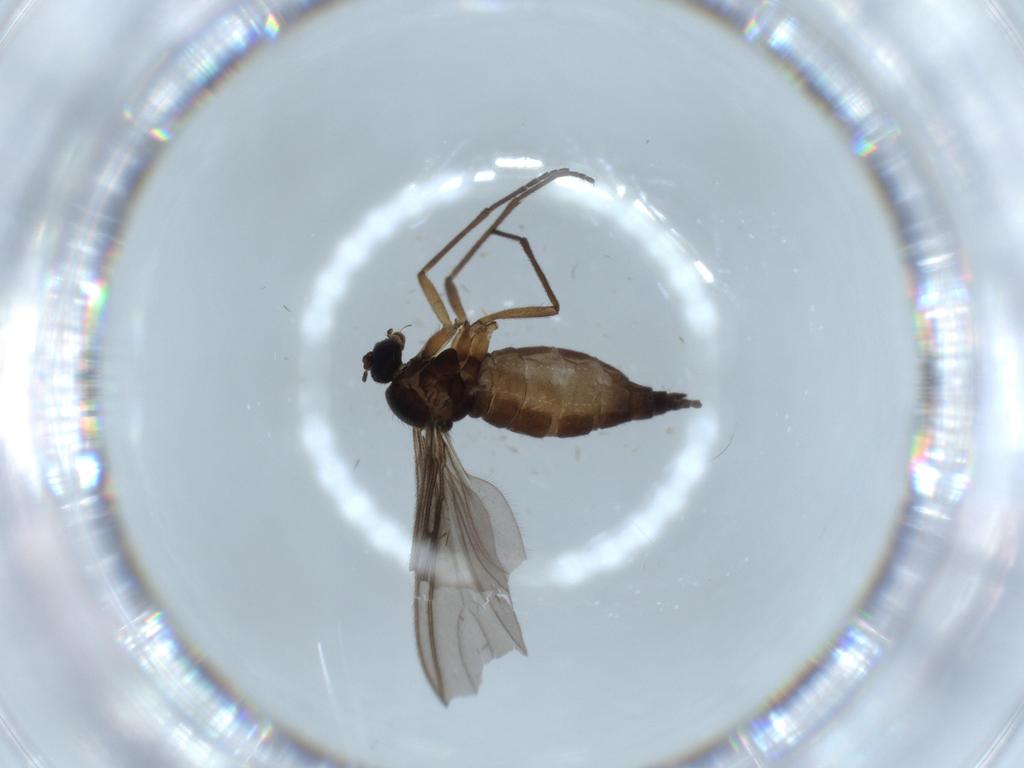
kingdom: Animalia
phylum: Arthropoda
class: Insecta
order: Diptera
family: Sciaridae
